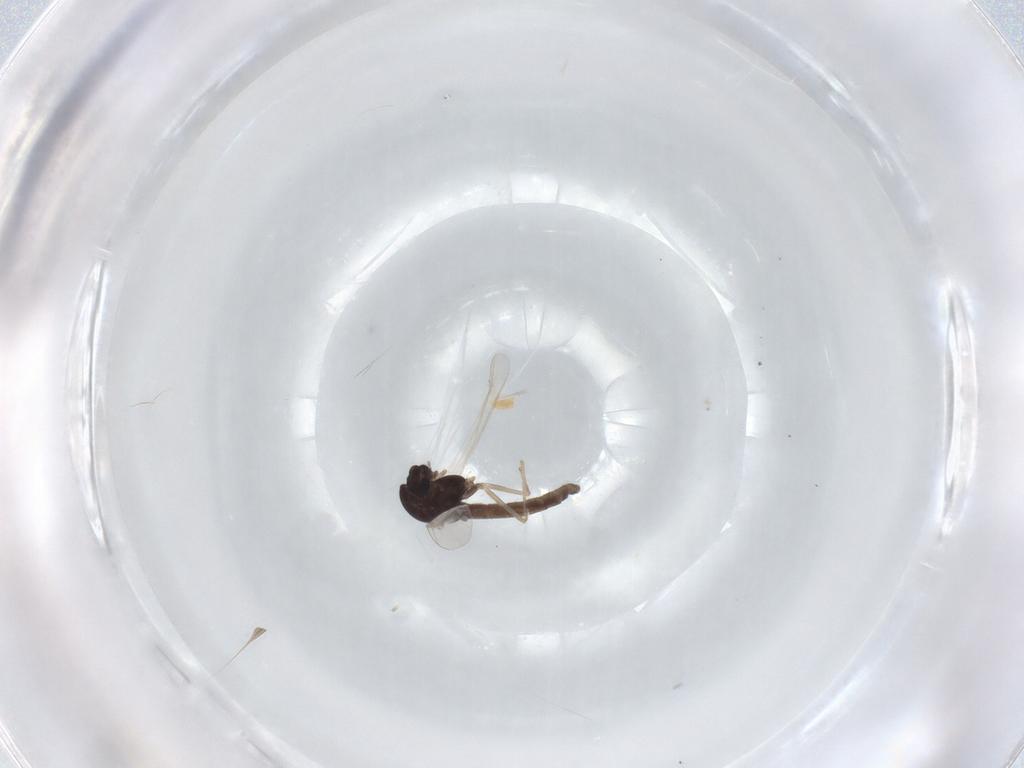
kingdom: Animalia
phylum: Arthropoda
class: Insecta
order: Diptera
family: Chironomidae
